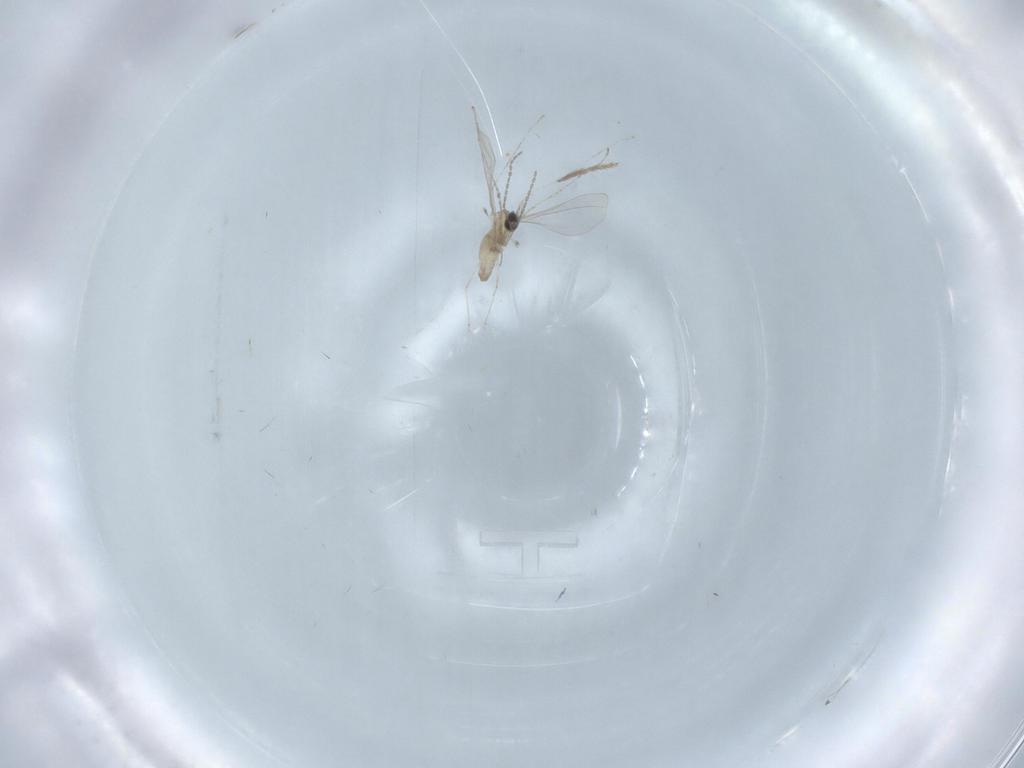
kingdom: Animalia
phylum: Arthropoda
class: Insecta
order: Diptera
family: Cecidomyiidae
